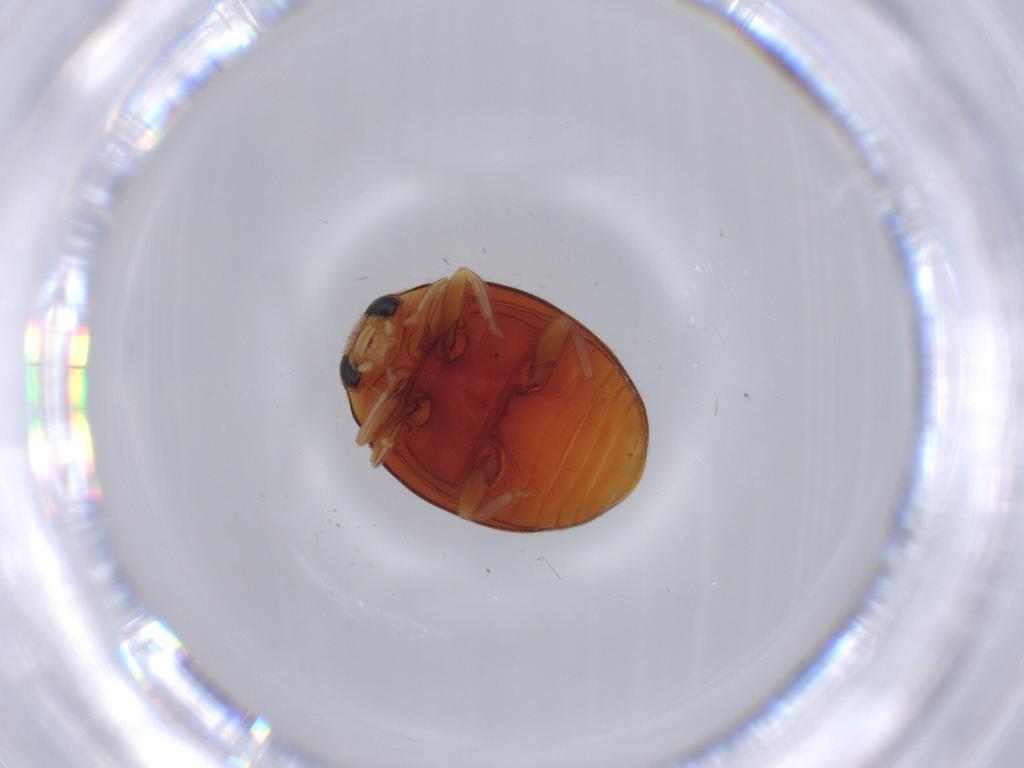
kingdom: Animalia
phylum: Arthropoda
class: Insecta
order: Coleoptera
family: Coccinellidae
